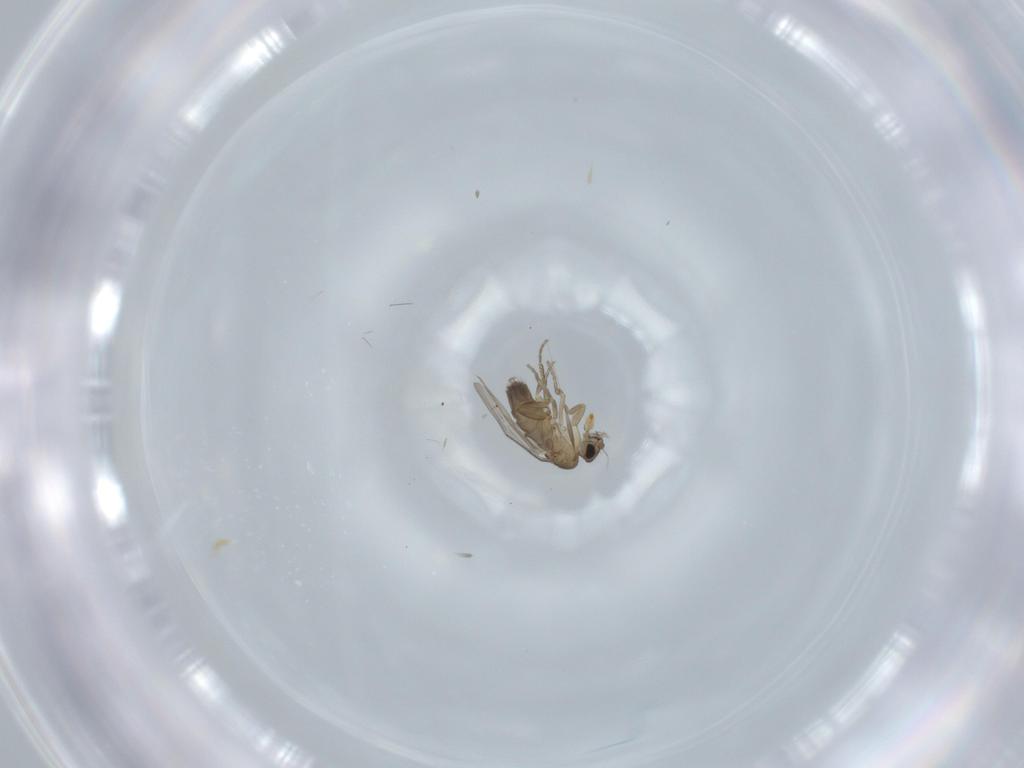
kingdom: Animalia
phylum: Arthropoda
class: Insecta
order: Diptera
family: Phoridae
